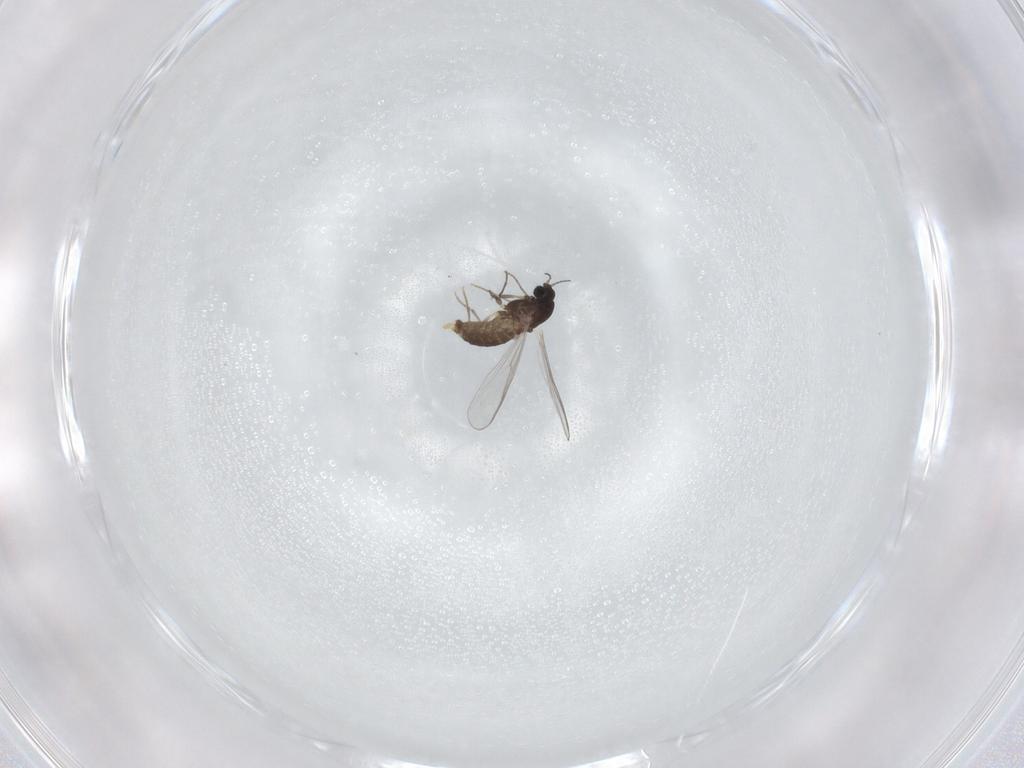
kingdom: Animalia
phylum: Arthropoda
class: Insecta
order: Diptera
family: Chironomidae
